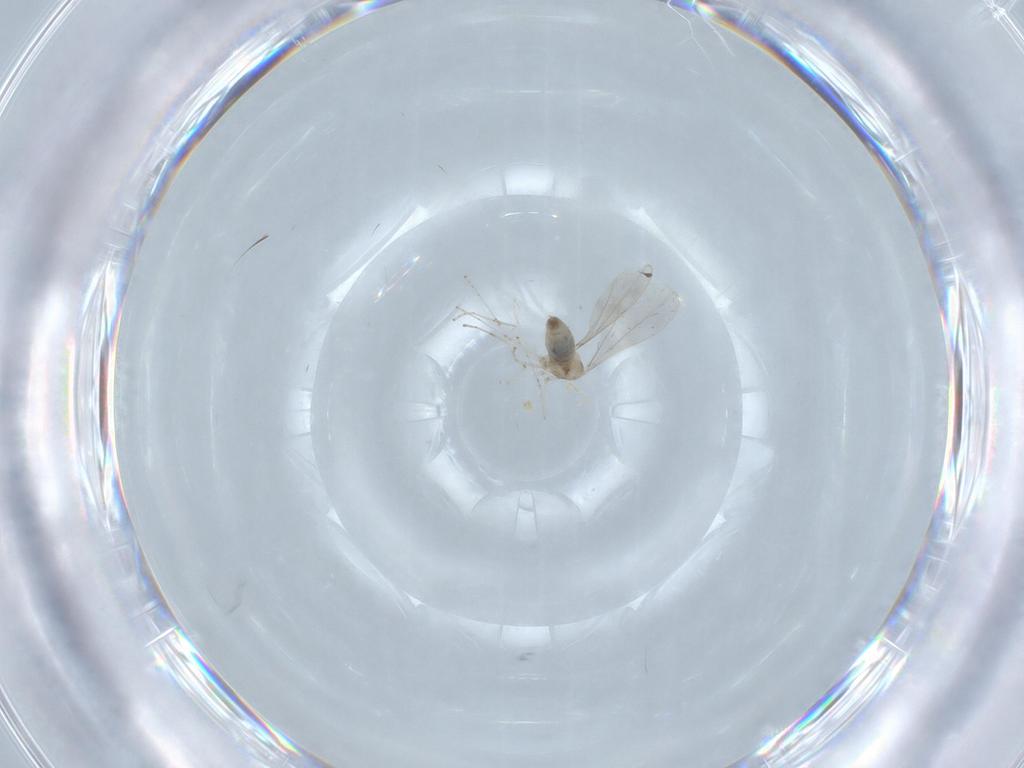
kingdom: Animalia
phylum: Arthropoda
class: Insecta
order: Diptera
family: Cecidomyiidae
